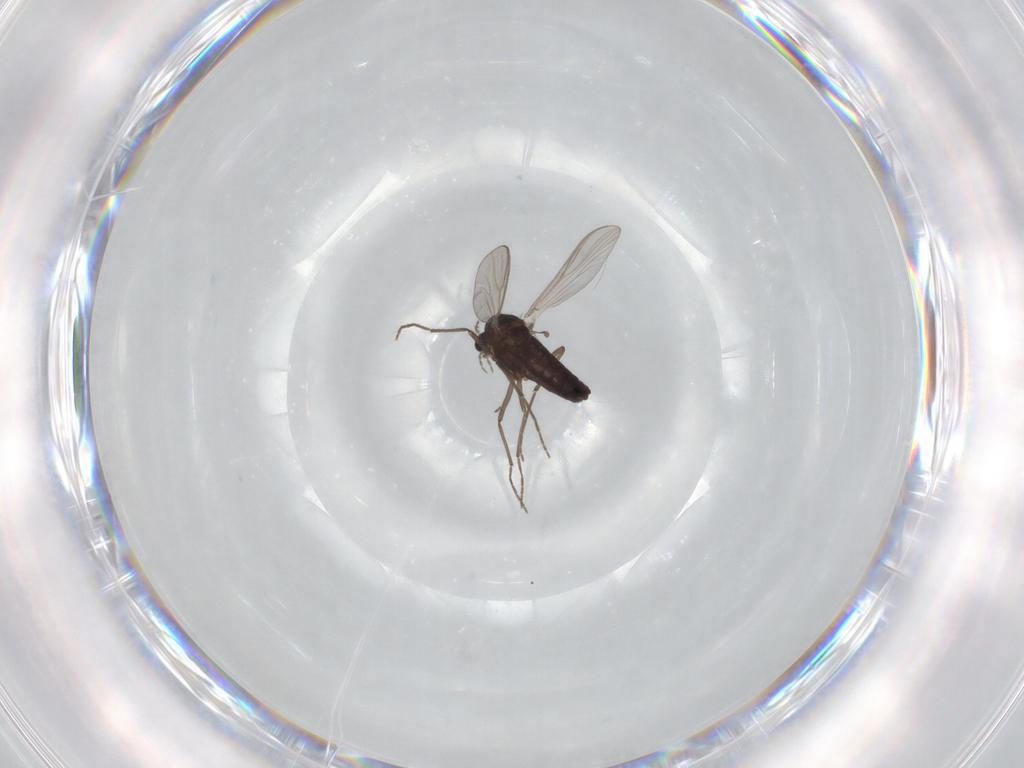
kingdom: Animalia
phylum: Arthropoda
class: Insecta
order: Diptera
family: Chironomidae
